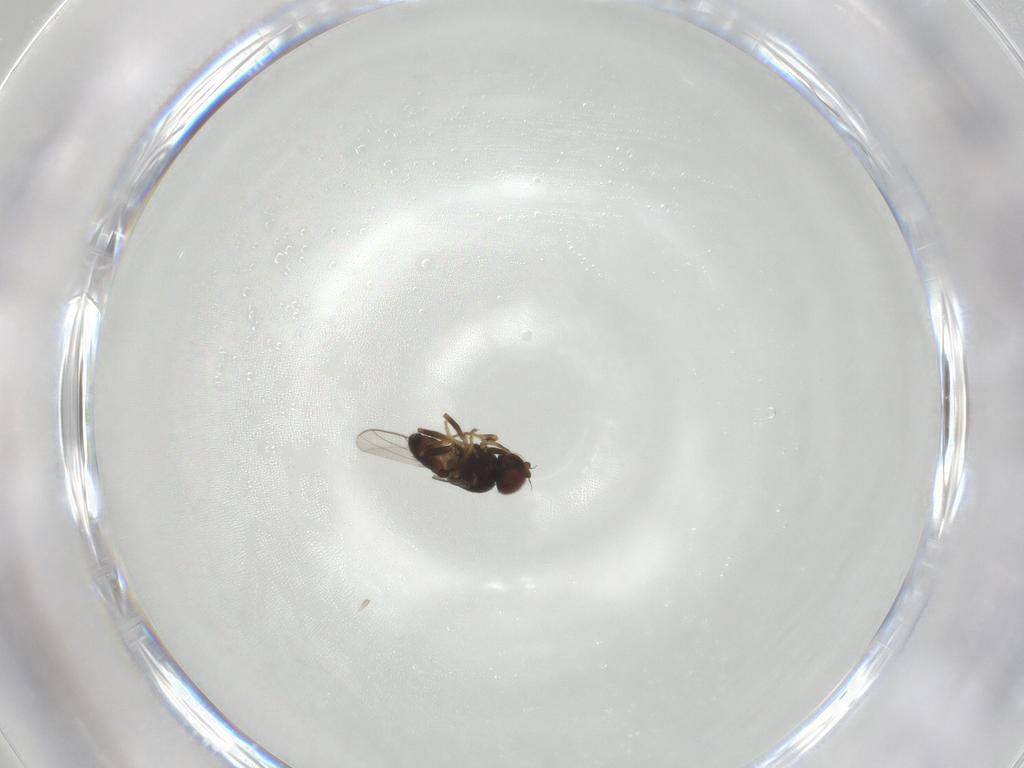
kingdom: Animalia
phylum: Arthropoda
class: Insecta
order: Diptera
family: Chloropidae
